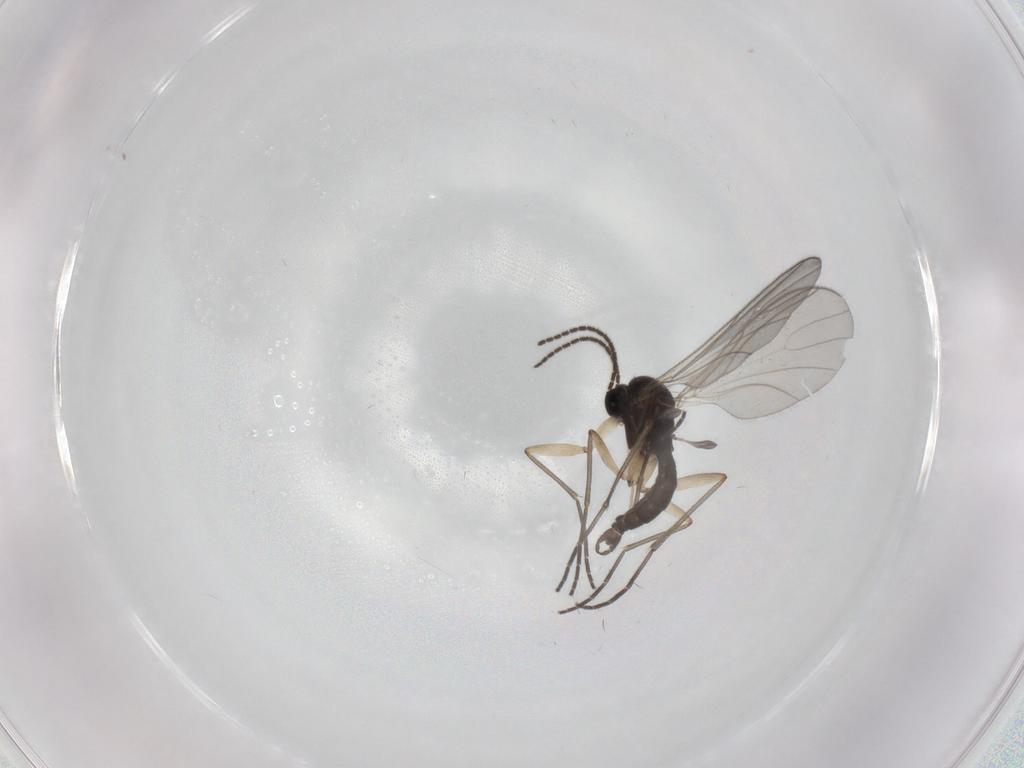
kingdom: Animalia
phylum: Arthropoda
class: Insecta
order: Diptera
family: Sciaridae
